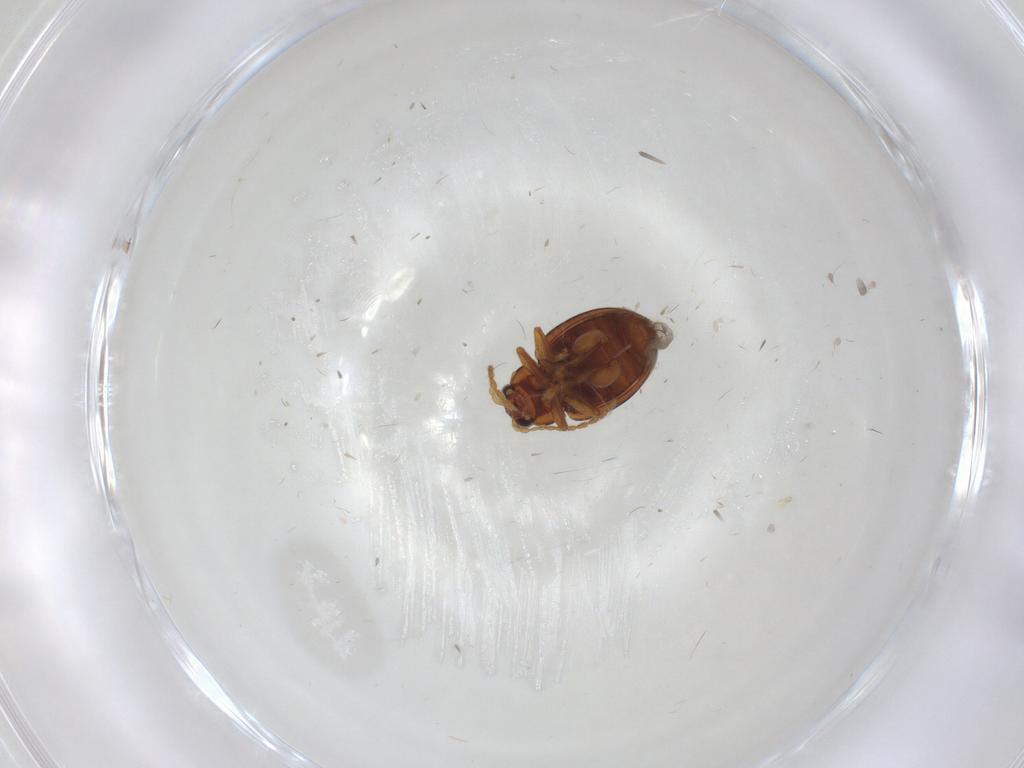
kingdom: Animalia
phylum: Arthropoda
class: Insecta
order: Coleoptera
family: Chrysomelidae
